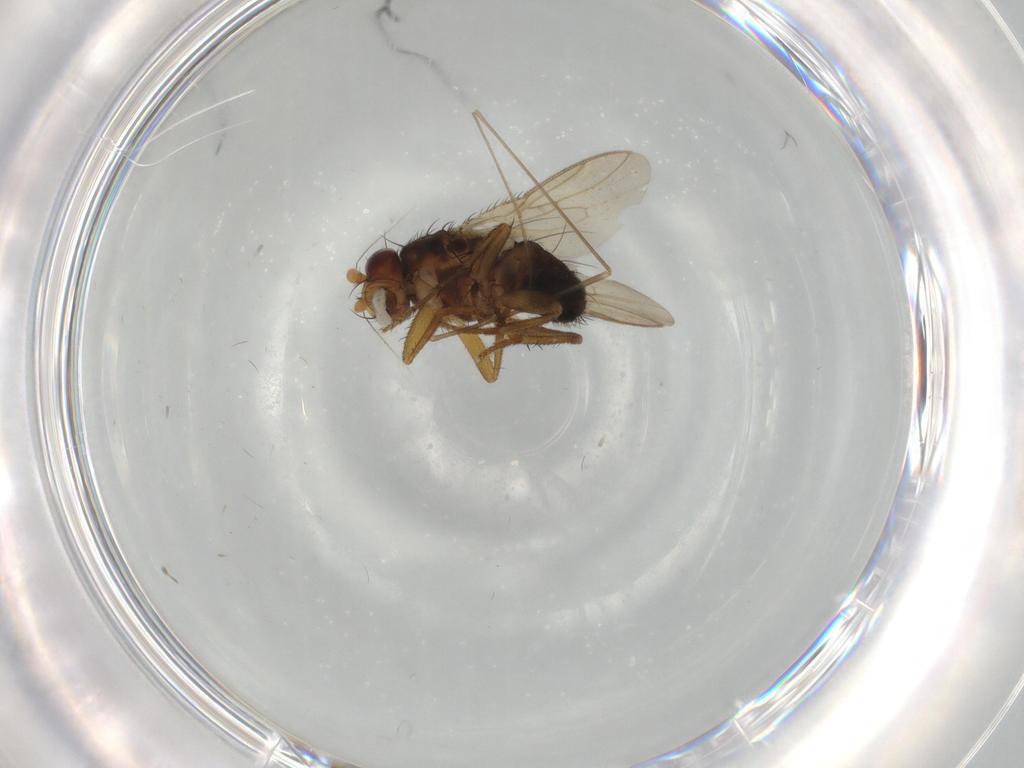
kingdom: Animalia
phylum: Arthropoda
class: Insecta
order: Diptera
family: Sphaeroceridae
